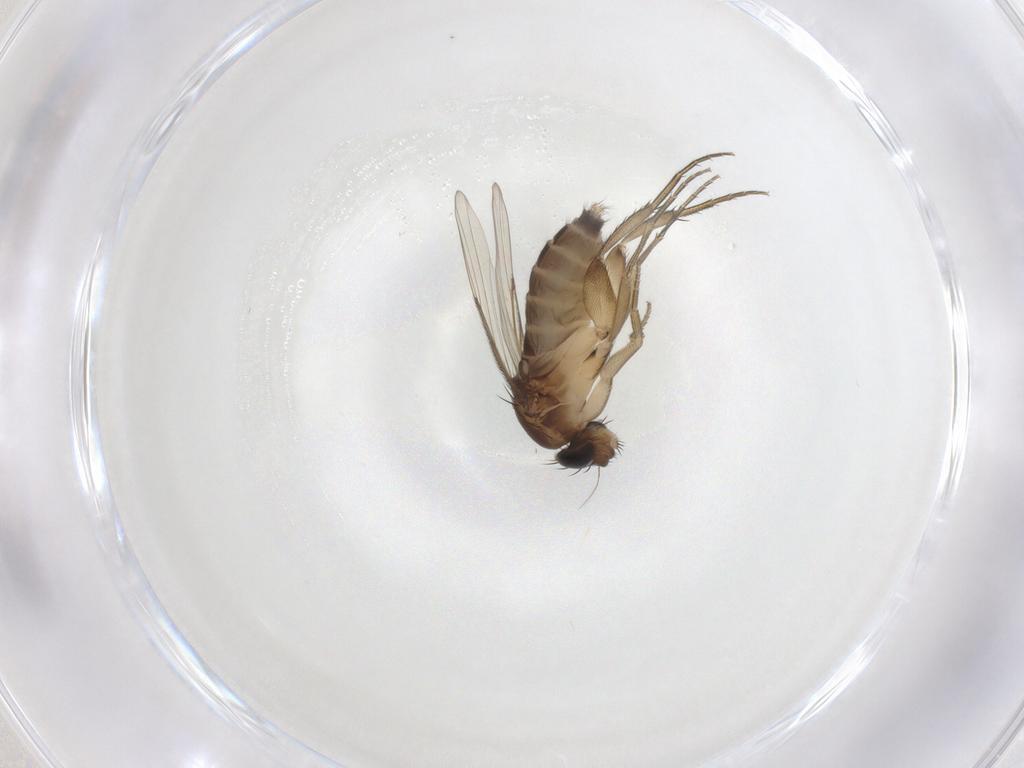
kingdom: Animalia
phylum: Arthropoda
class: Insecta
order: Diptera
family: Phoridae
